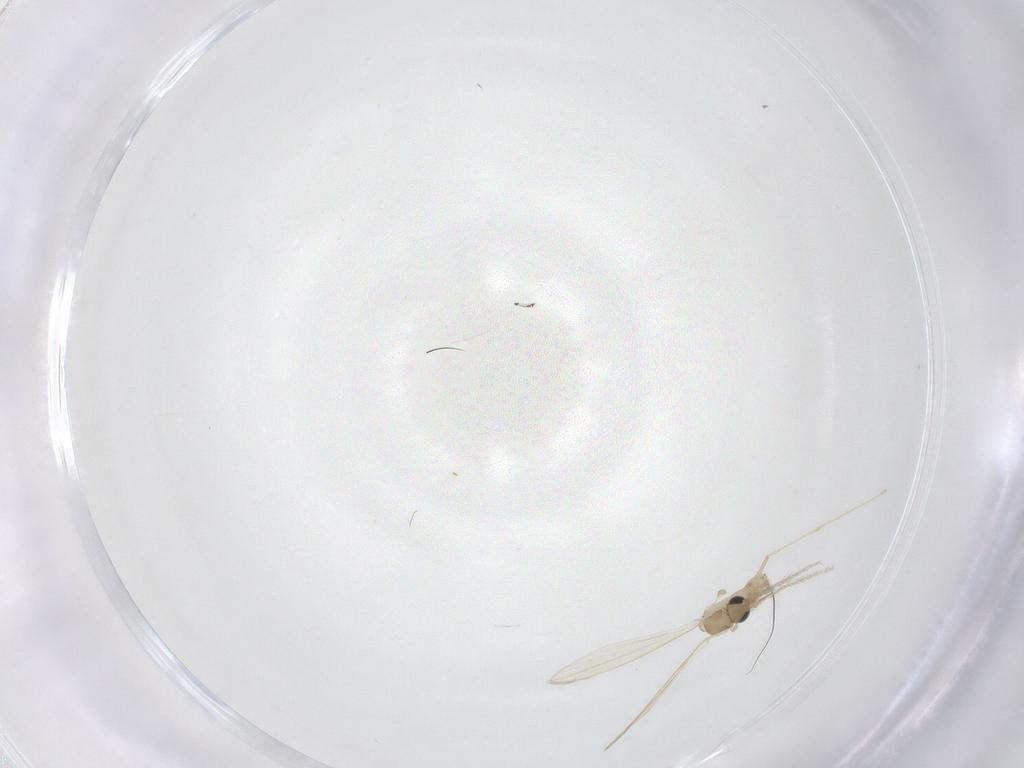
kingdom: Animalia
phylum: Arthropoda
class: Insecta
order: Diptera
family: Psychodidae
